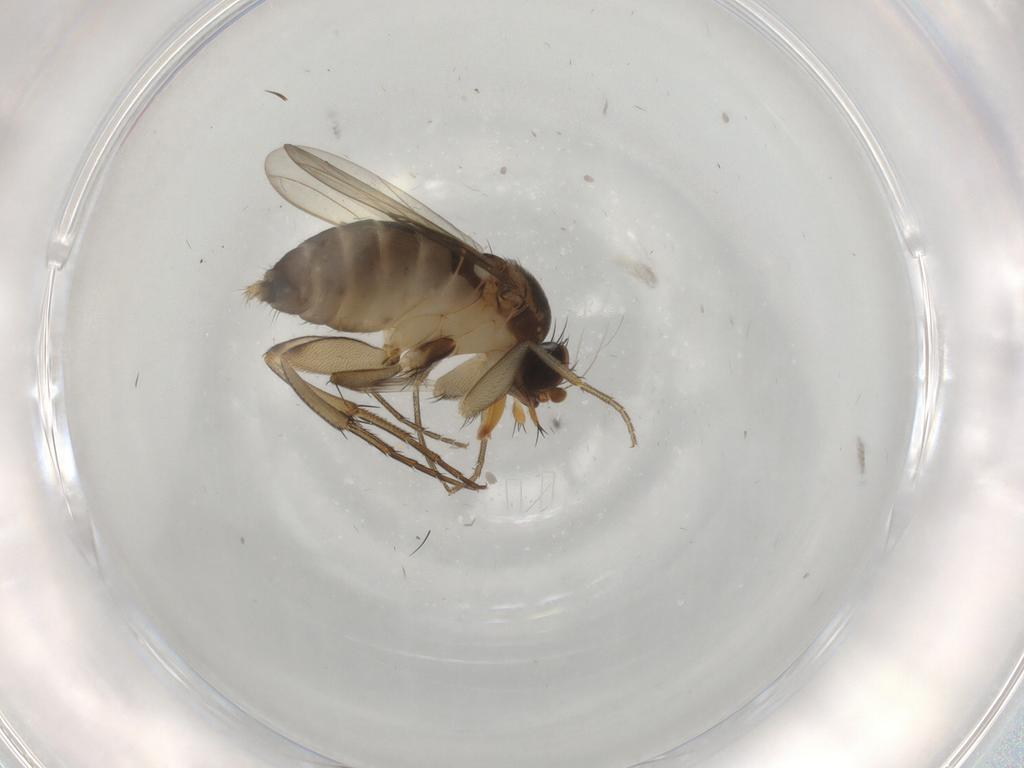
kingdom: Animalia
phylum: Arthropoda
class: Insecta
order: Diptera
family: Phoridae
